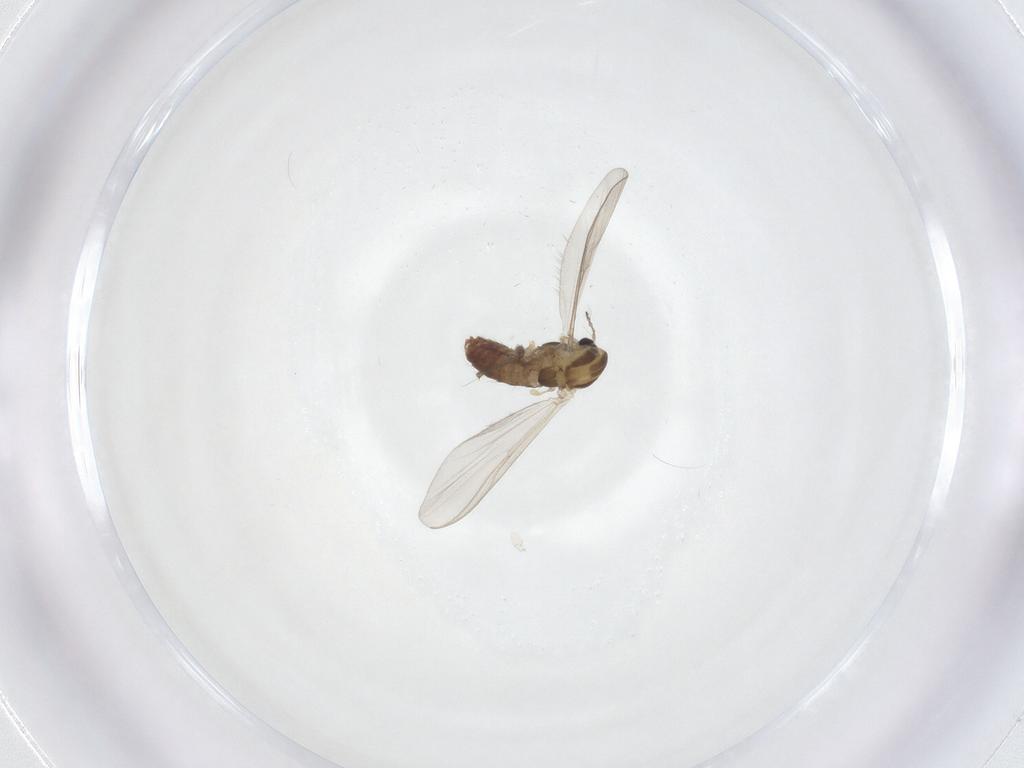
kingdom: Animalia
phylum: Arthropoda
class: Insecta
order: Diptera
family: Chironomidae
